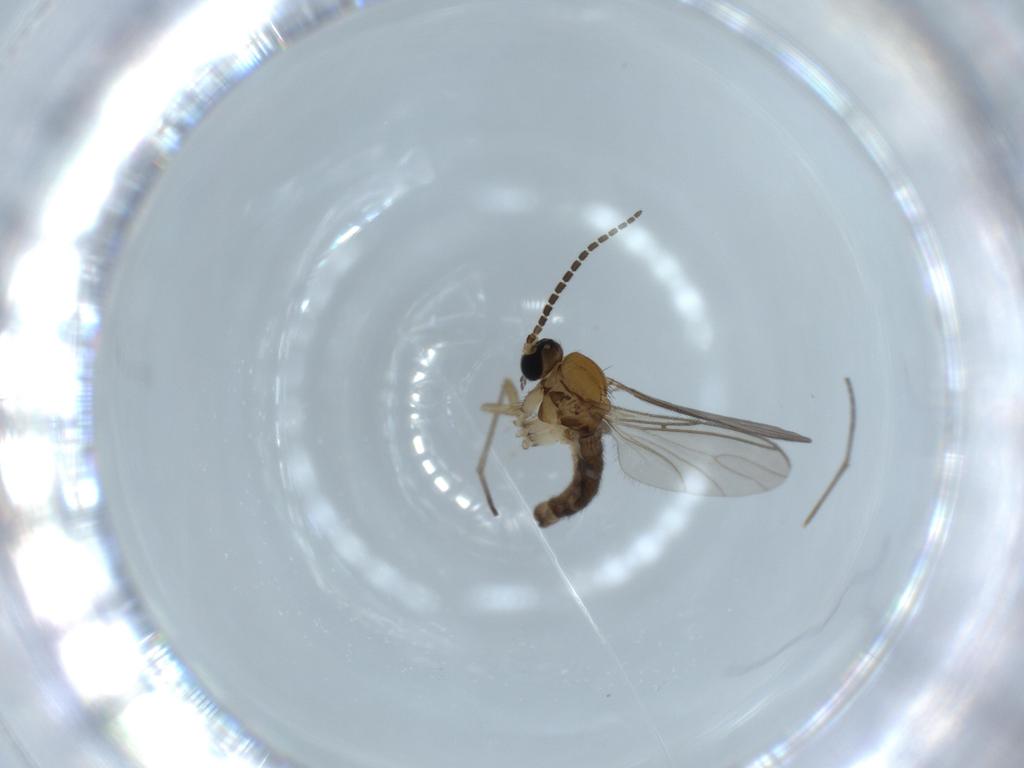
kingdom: Animalia
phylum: Arthropoda
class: Insecta
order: Diptera
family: Sciaridae
